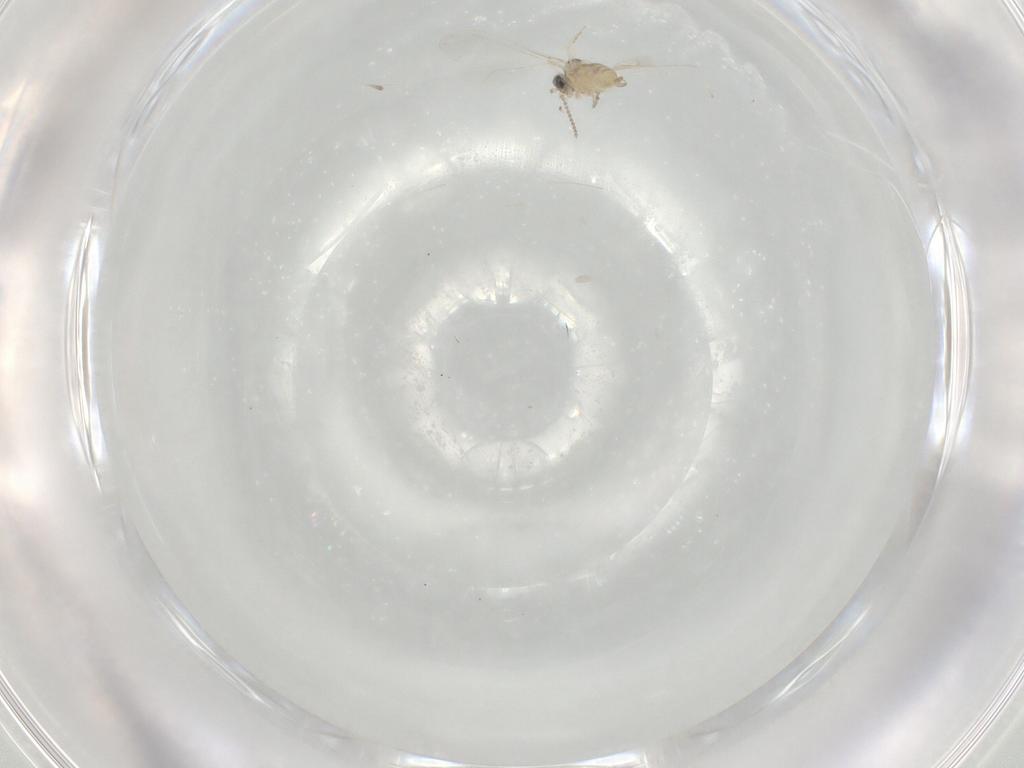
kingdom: Animalia
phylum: Arthropoda
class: Insecta
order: Diptera
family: Cecidomyiidae
